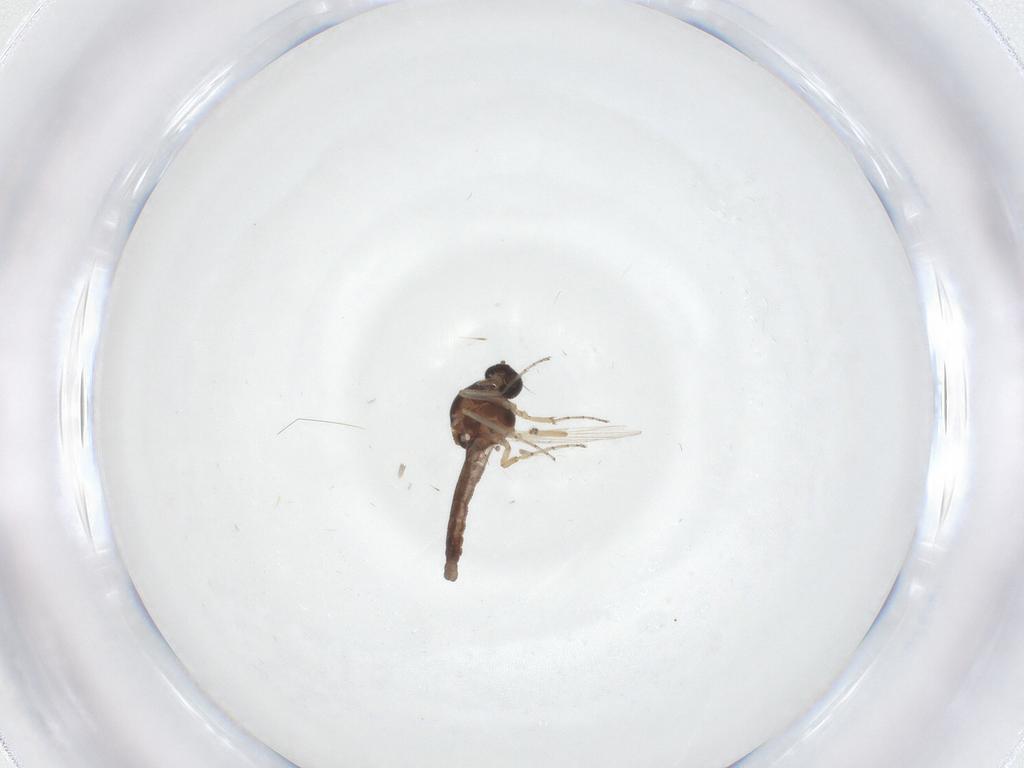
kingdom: Animalia
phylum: Arthropoda
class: Insecta
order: Diptera
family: Ceratopogonidae
